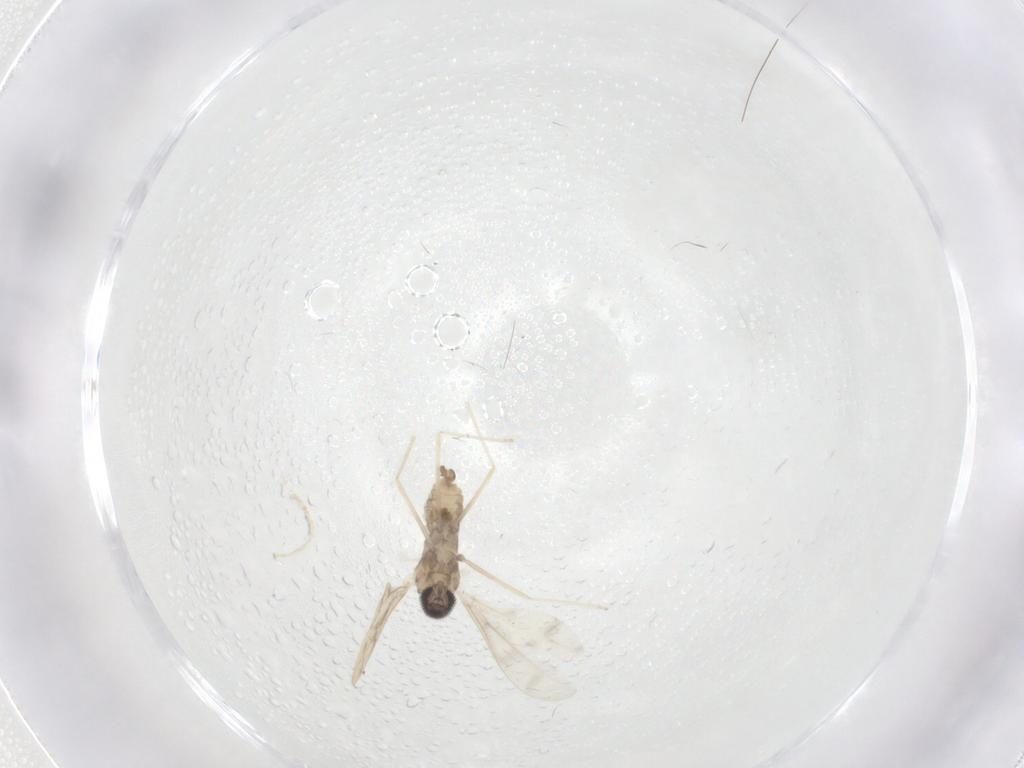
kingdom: Animalia
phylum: Arthropoda
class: Insecta
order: Diptera
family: Cecidomyiidae
